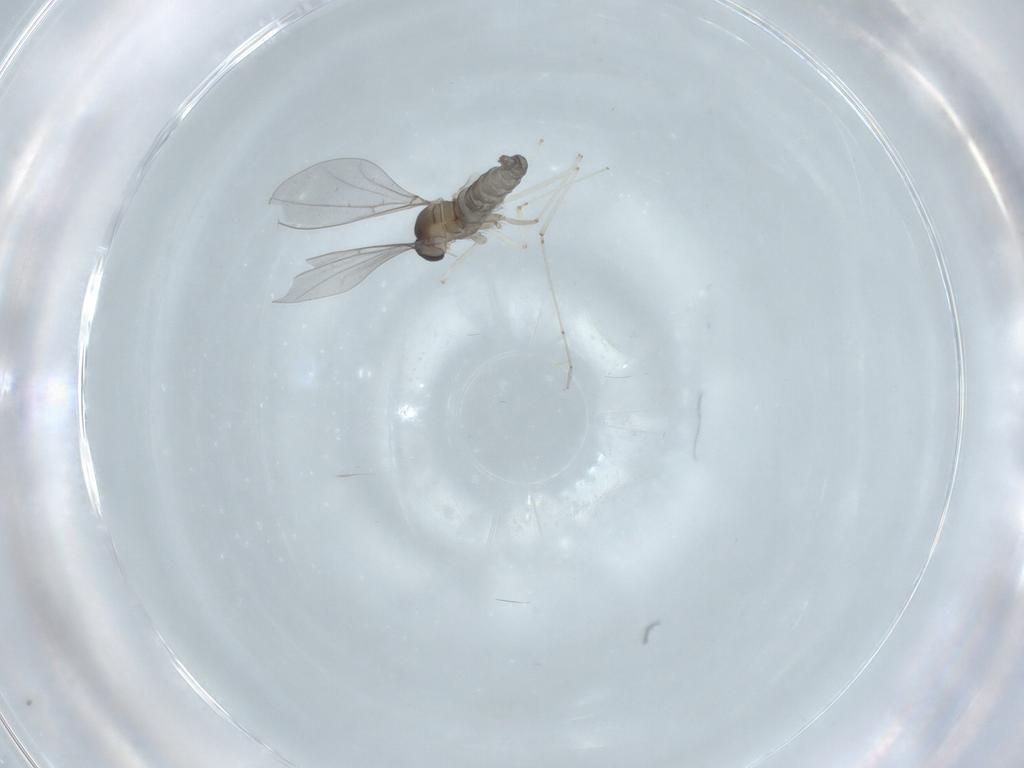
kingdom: Animalia
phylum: Arthropoda
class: Insecta
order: Diptera
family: Cecidomyiidae
